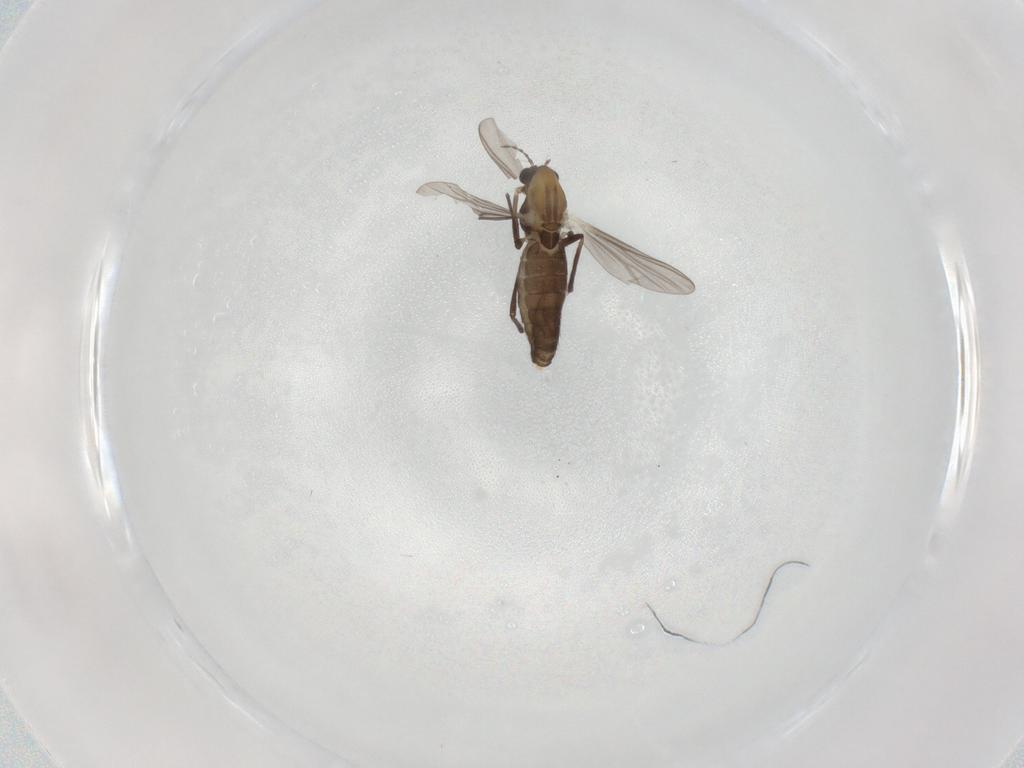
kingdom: Animalia
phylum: Arthropoda
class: Insecta
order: Diptera
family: Chironomidae
